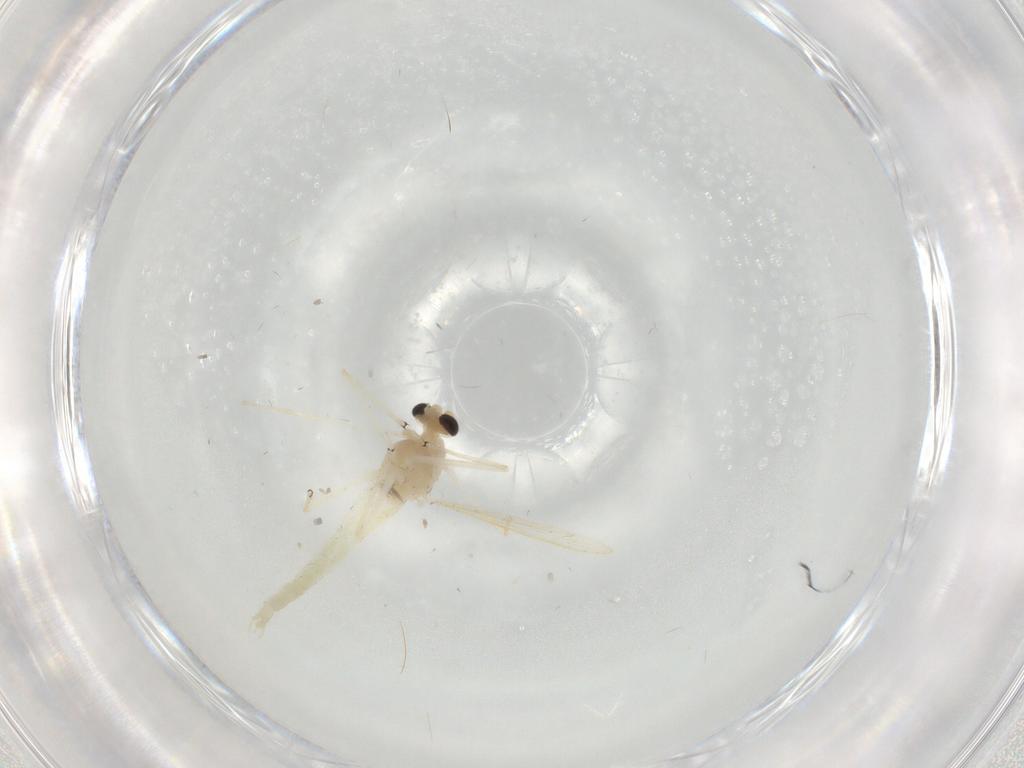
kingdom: Animalia
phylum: Arthropoda
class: Insecta
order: Diptera
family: Chironomidae
